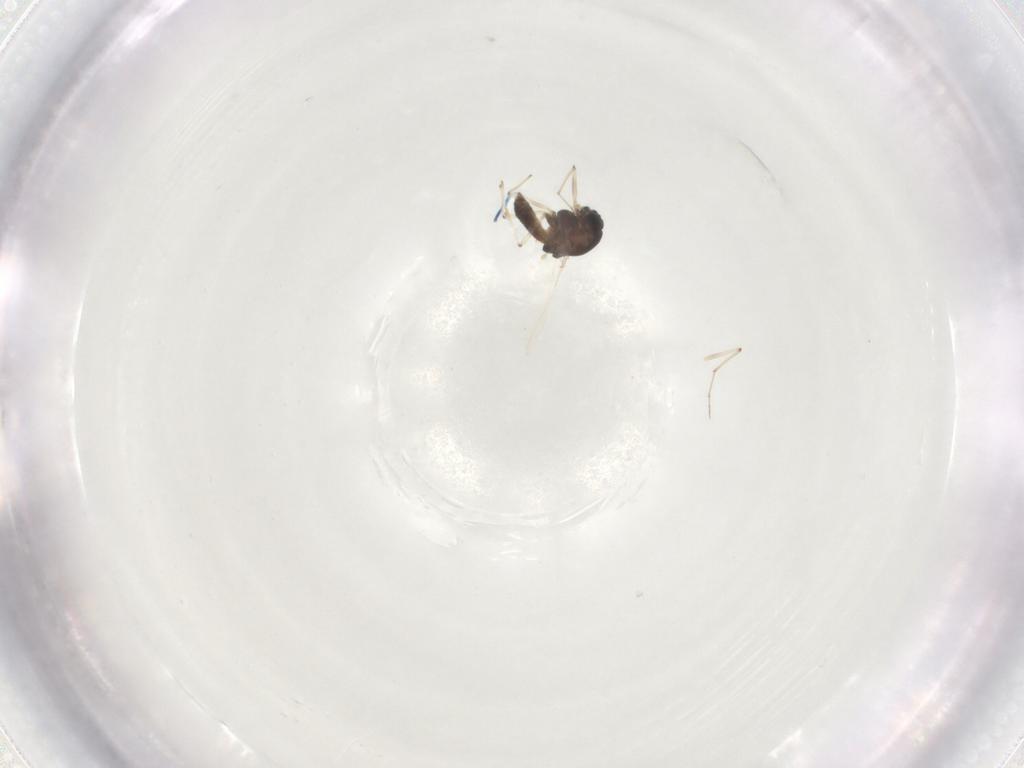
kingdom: Animalia
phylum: Arthropoda
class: Insecta
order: Diptera
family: Chironomidae
